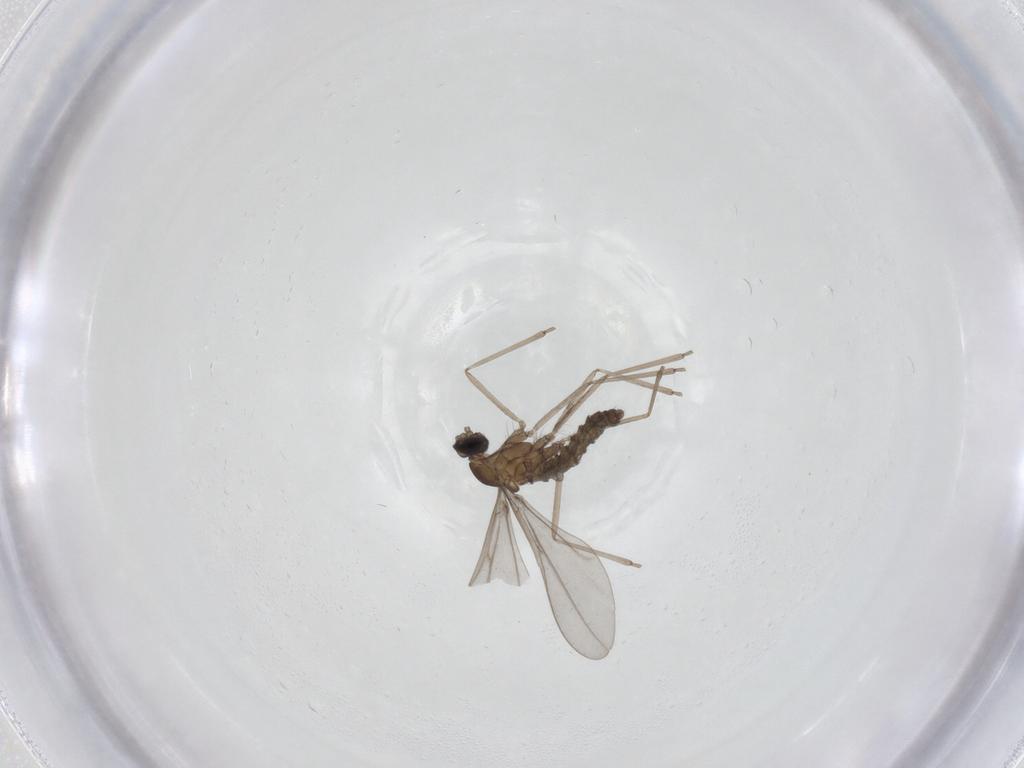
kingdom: Animalia
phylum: Arthropoda
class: Insecta
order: Diptera
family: Cecidomyiidae
